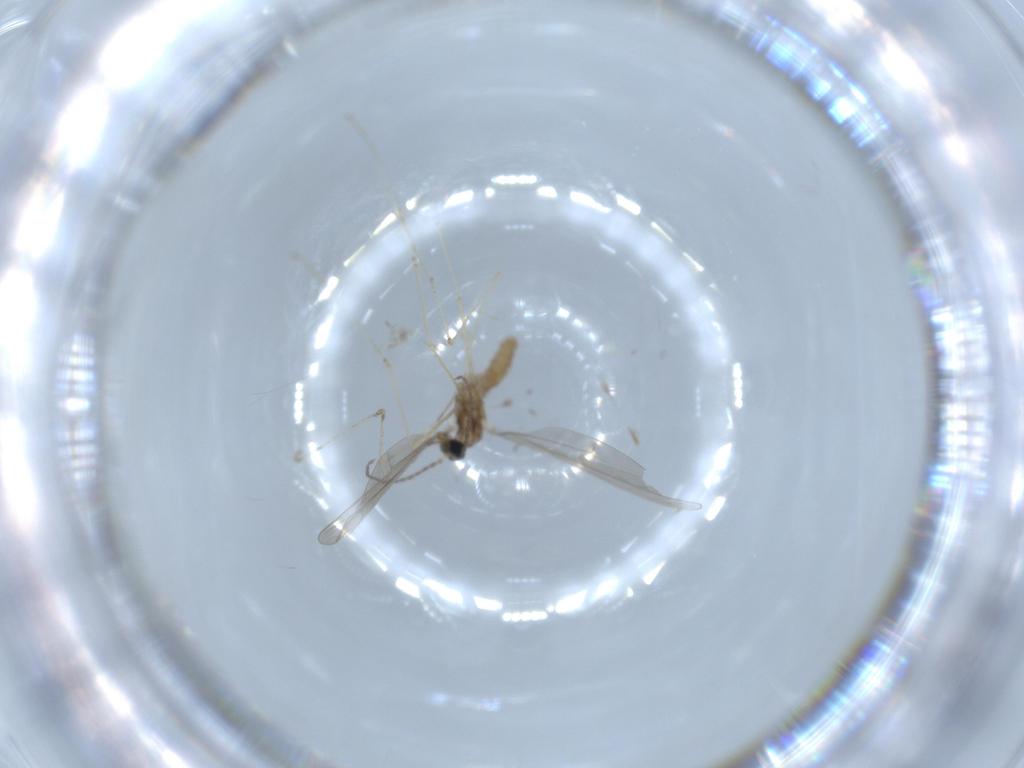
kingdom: Animalia
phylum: Arthropoda
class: Insecta
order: Diptera
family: Cecidomyiidae
